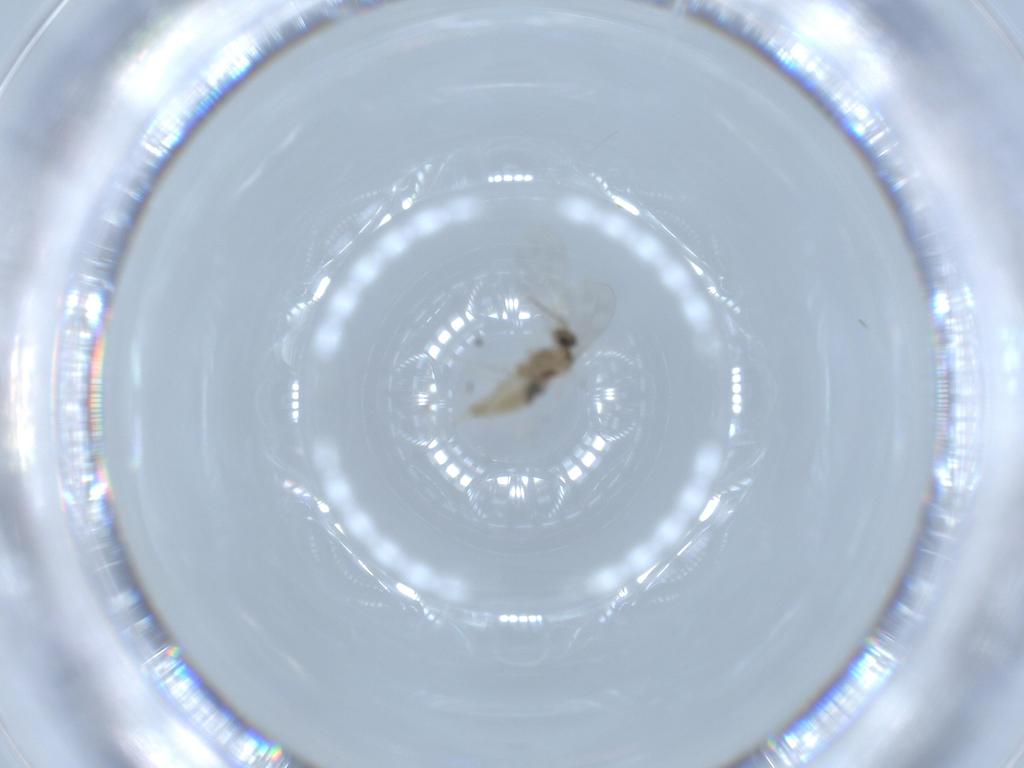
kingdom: Animalia
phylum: Arthropoda
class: Insecta
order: Diptera
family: Cecidomyiidae
